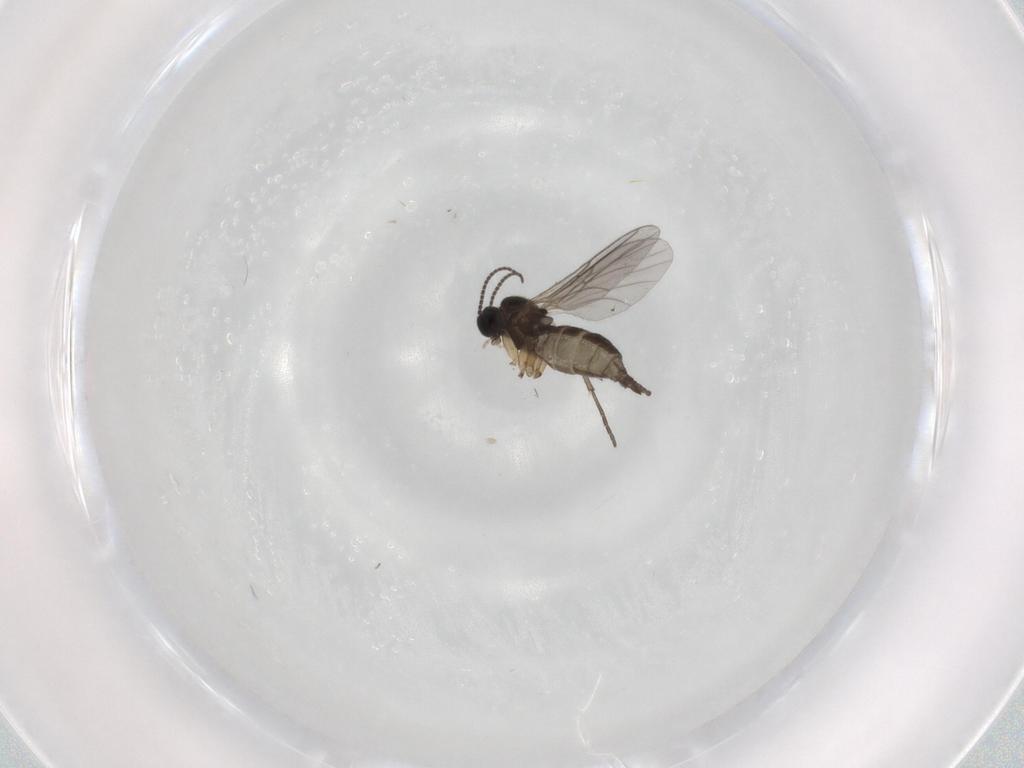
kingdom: Animalia
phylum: Arthropoda
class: Insecta
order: Diptera
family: Sciaridae
